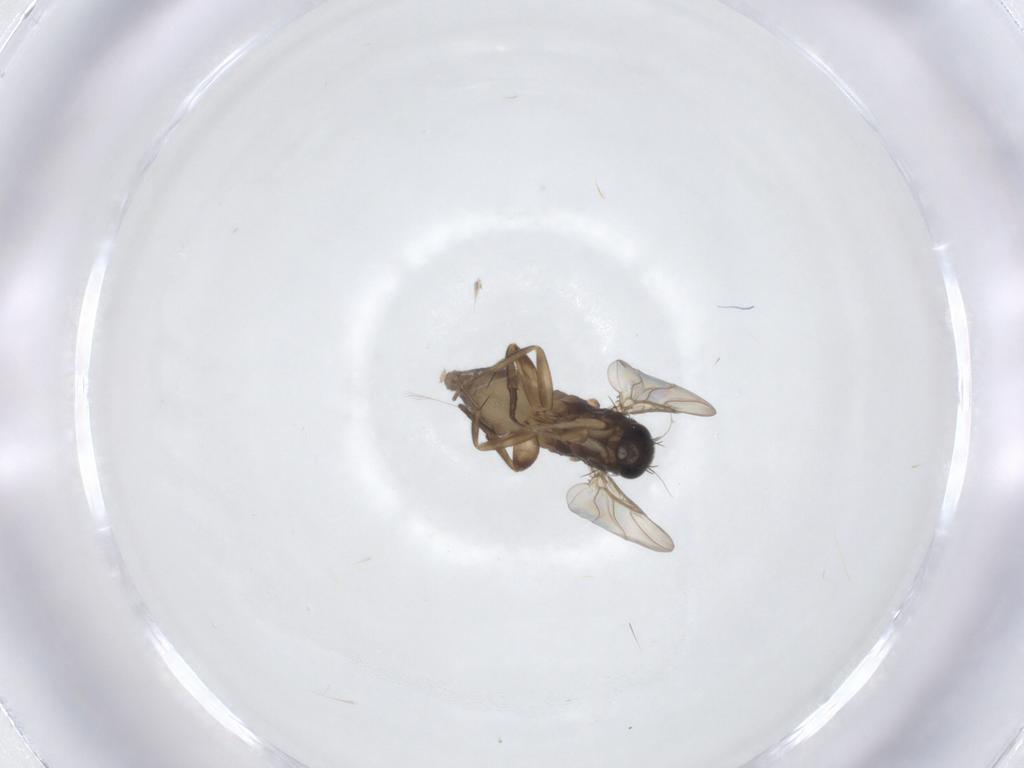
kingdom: Animalia
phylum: Arthropoda
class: Insecta
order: Diptera
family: Phoridae
